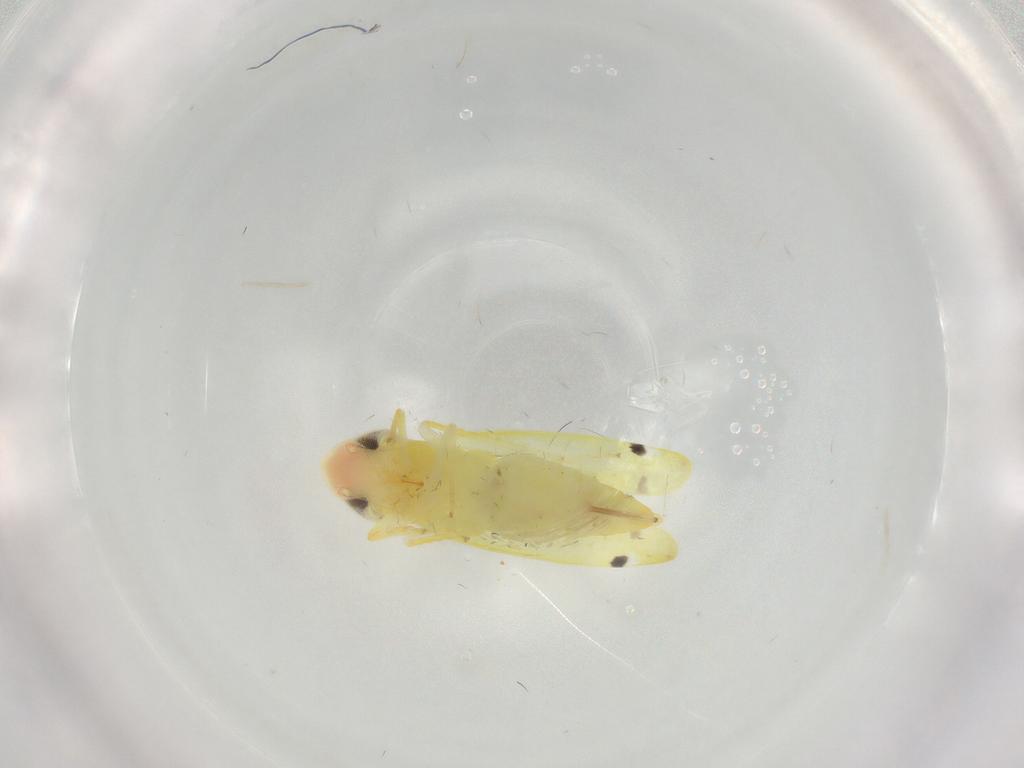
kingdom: Animalia
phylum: Arthropoda
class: Insecta
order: Hemiptera
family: Cicadellidae
